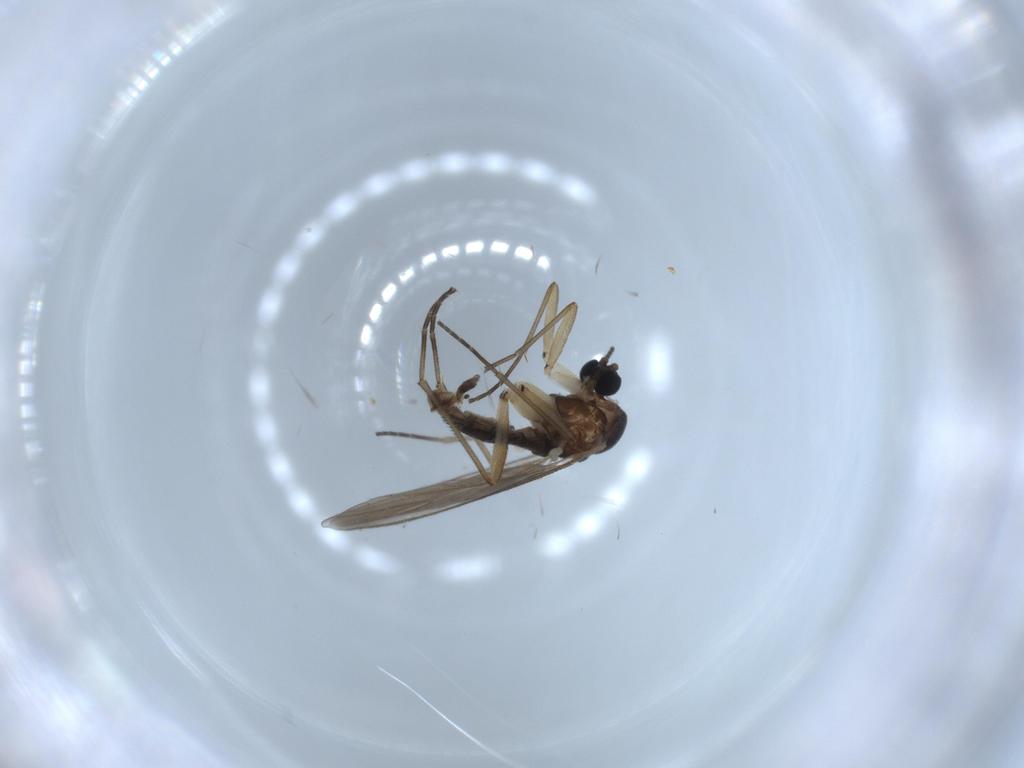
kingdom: Animalia
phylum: Arthropoda
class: Insecta
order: Diptera
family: Sciaridae
